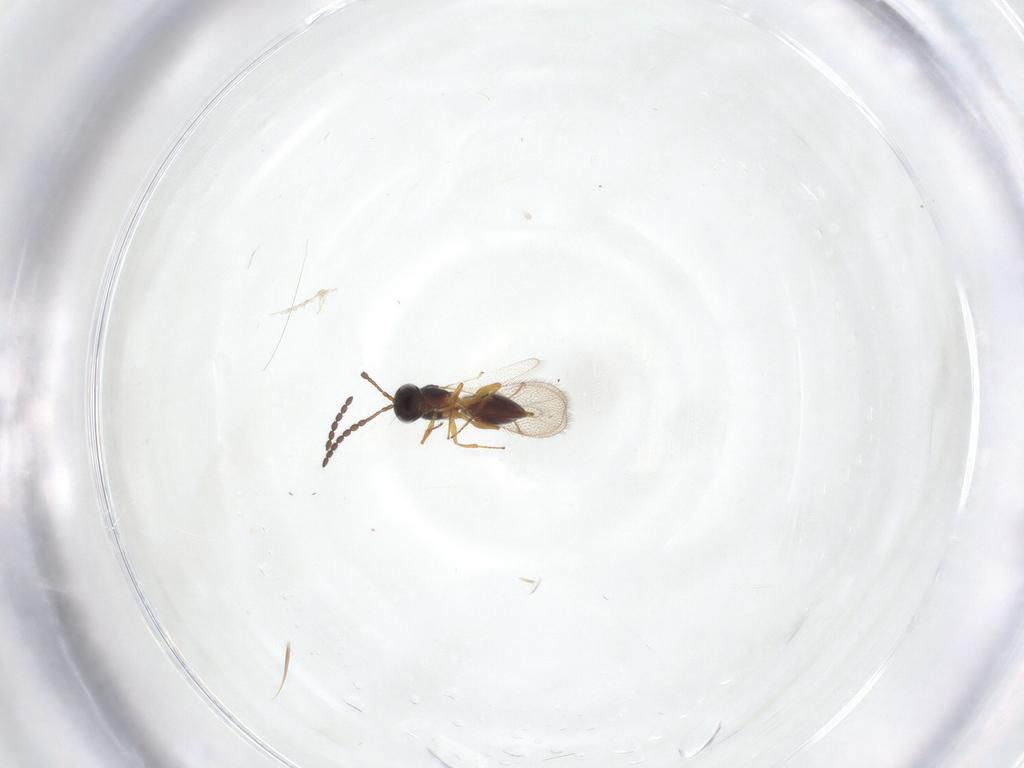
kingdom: Animalia
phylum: Arthropoda
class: Insecta
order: Hymenoptera
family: Figitidae
